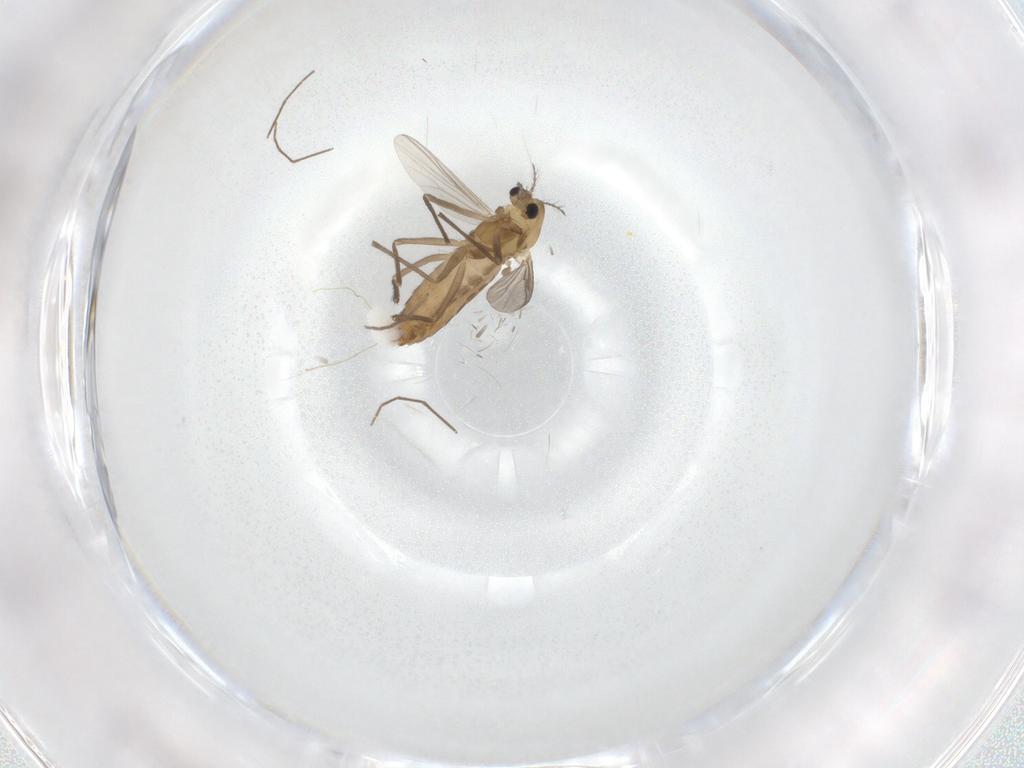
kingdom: Animalia
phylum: Arthropoda
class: Insecta
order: Diptera
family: Chironomidae
